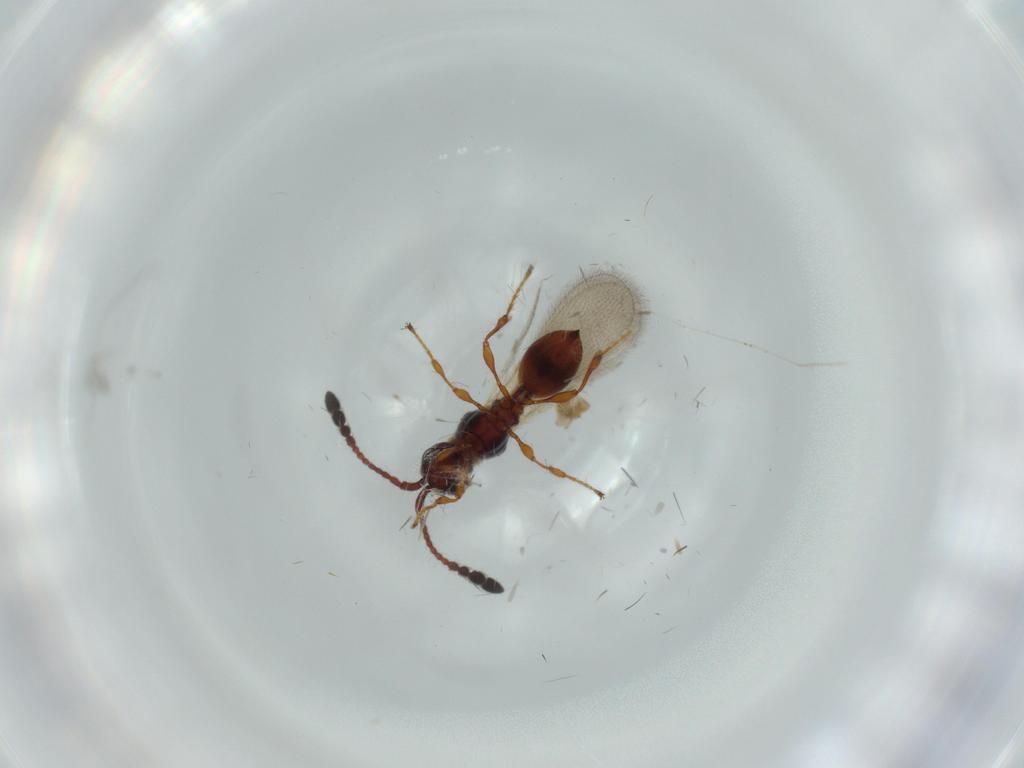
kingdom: Animalia
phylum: Arthropoda
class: Insecta
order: Hymenoptera
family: Diapriidae
